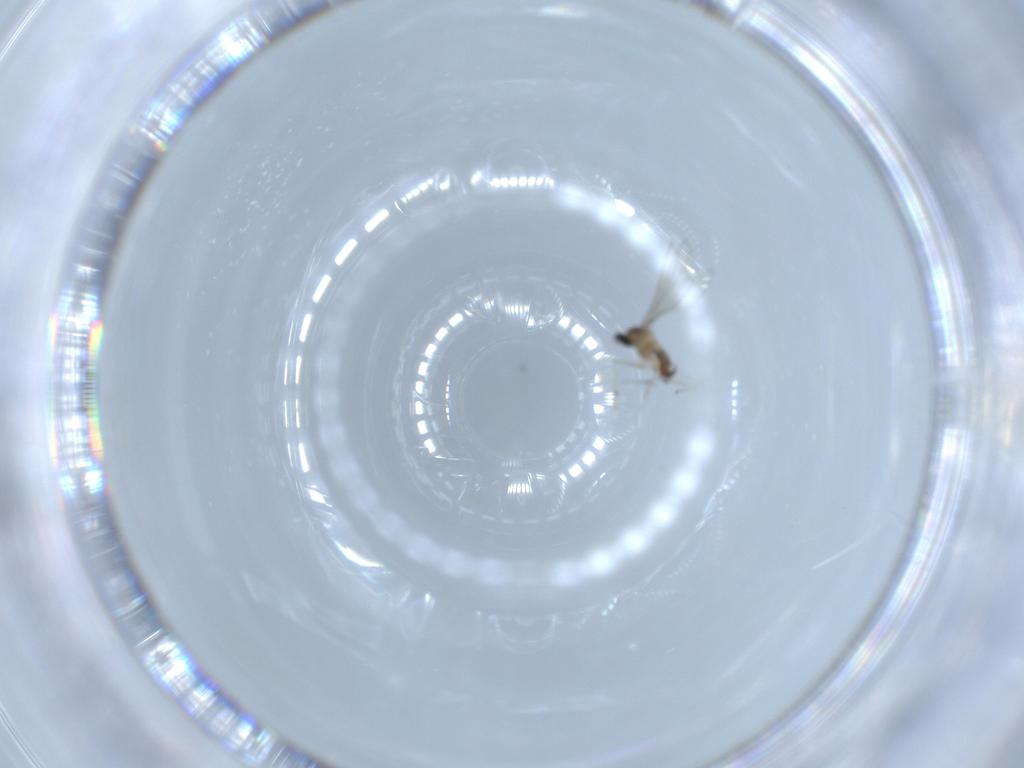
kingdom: Animalia
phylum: Arthropoda
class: Insecta
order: Diptera
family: Cecidomyiidae
